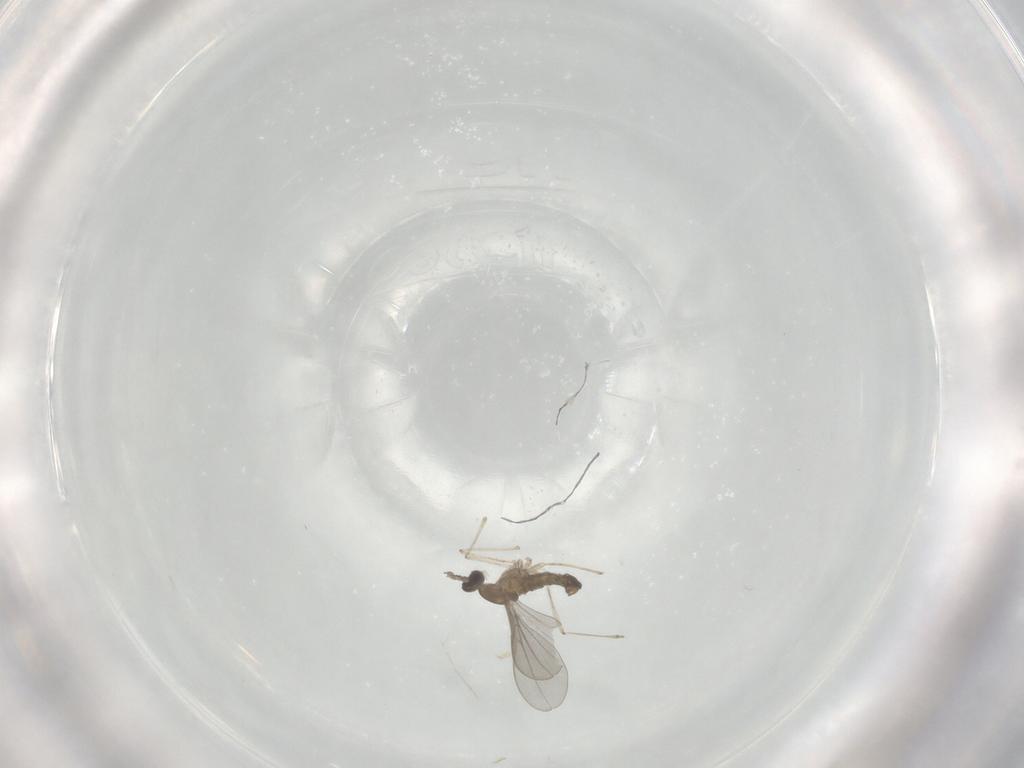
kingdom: Animalia
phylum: Arthropoda
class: Insecta
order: Diptera
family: Cecidomyiidae
